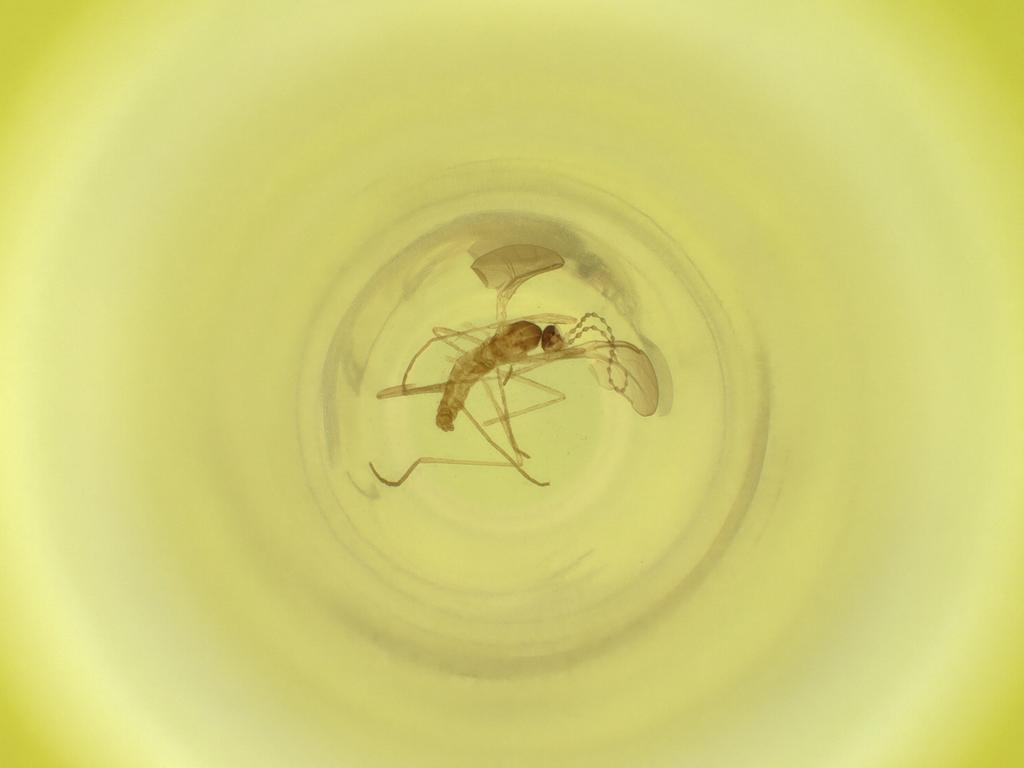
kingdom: Animalia
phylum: Arthropoda
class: Insecta
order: Diptera
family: Cecidomyiidae
